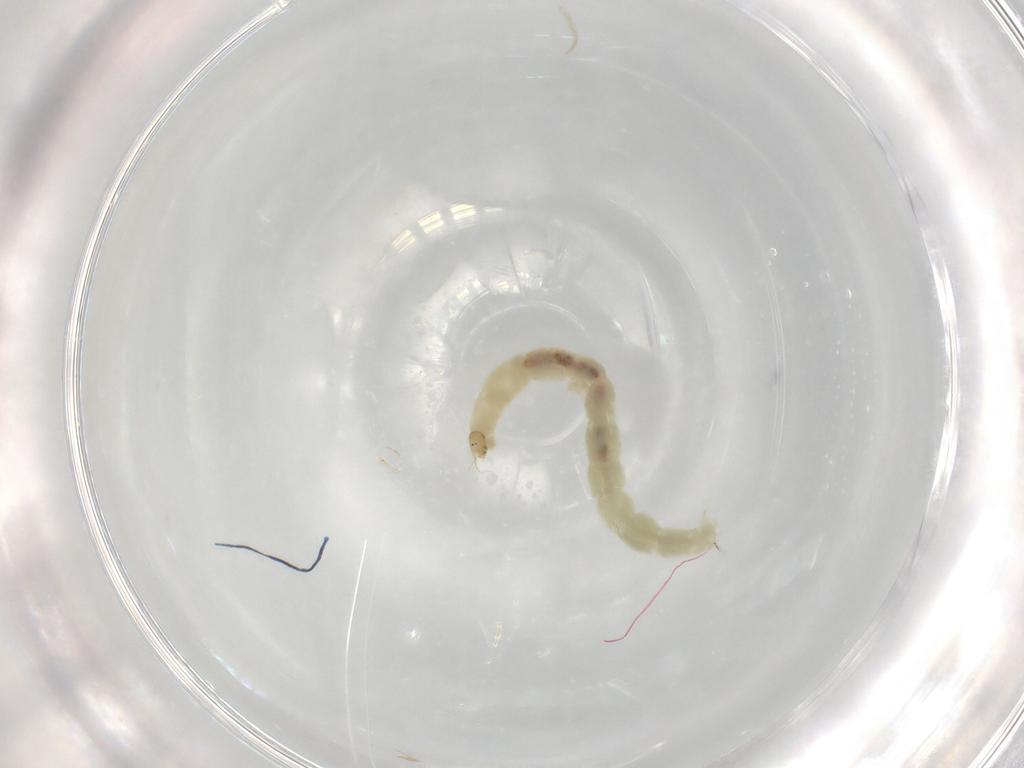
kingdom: Animalia
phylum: Arthropoda
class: Insecta
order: Diptera
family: Chironomidae
